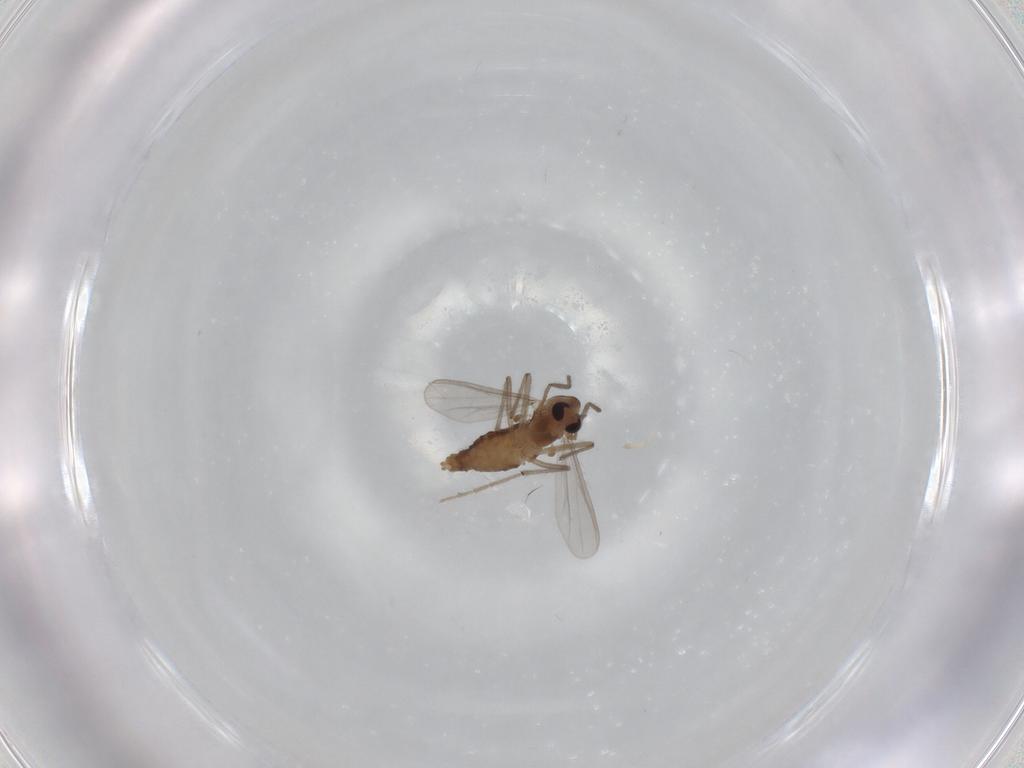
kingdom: Animalia
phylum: Arthropoda
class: Insecta
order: Diptera
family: Chironomidae
